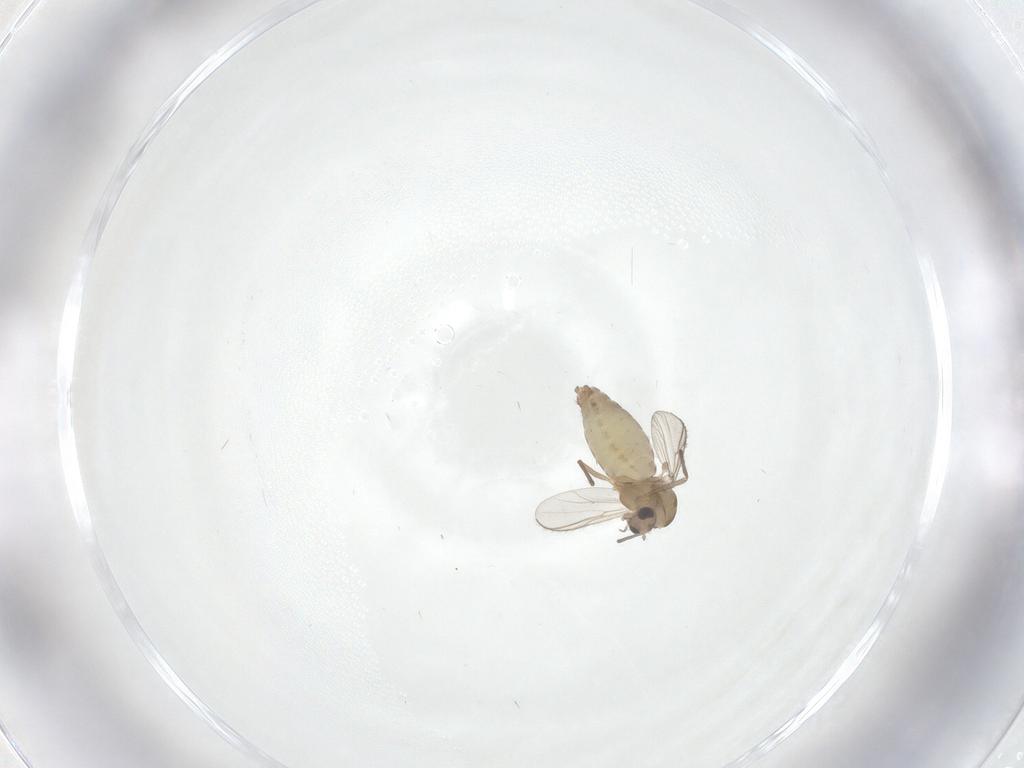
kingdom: Animalia
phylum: Arthropoda
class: Insecta
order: Diptera
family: Chironomidae
